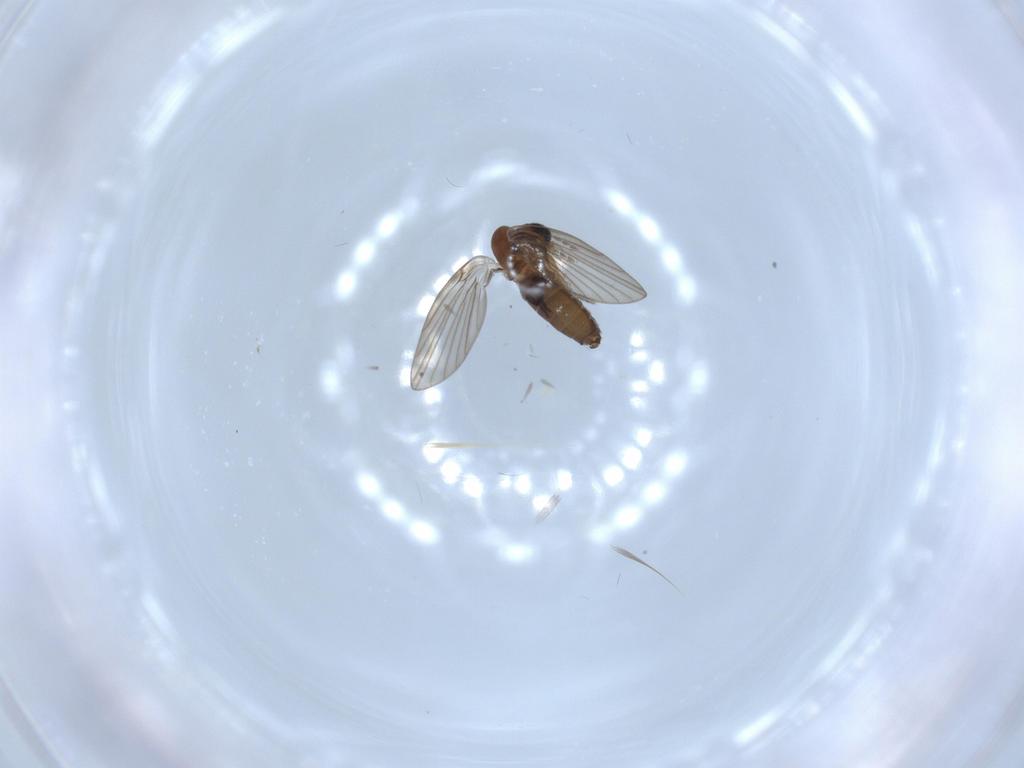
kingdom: Animalia
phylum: Arthropoda
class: Insecta
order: Diptera
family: Psychodidae
